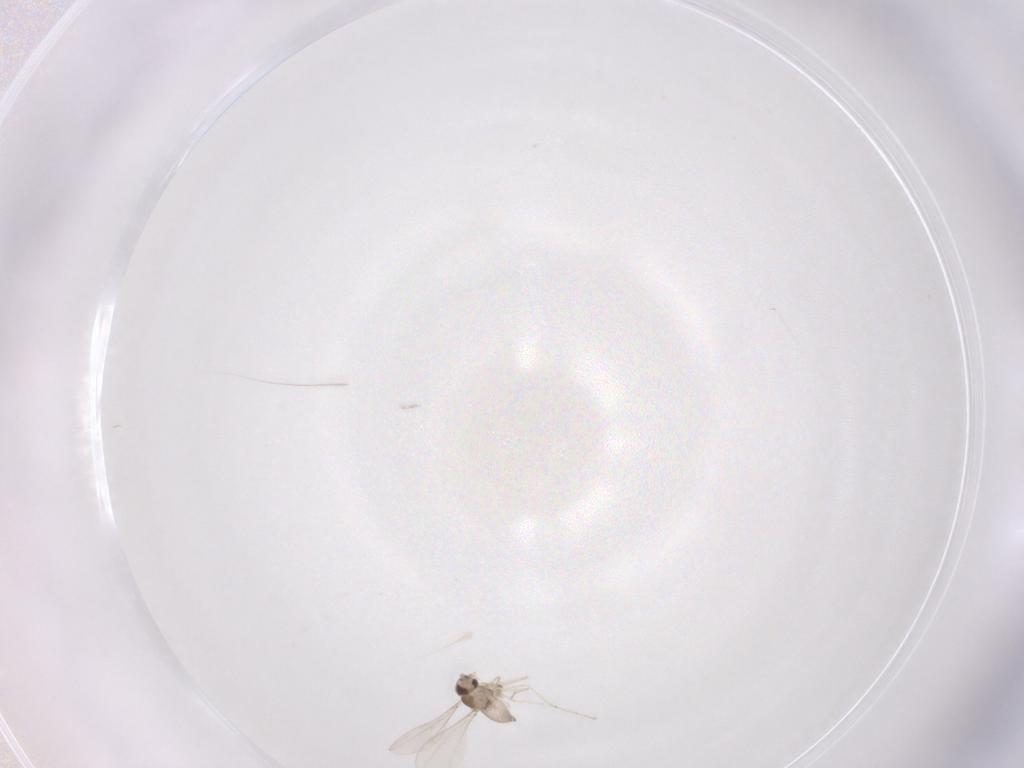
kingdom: Animalia
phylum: Arthropoda
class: Insecta
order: Diptera
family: Cecidomyiidae
